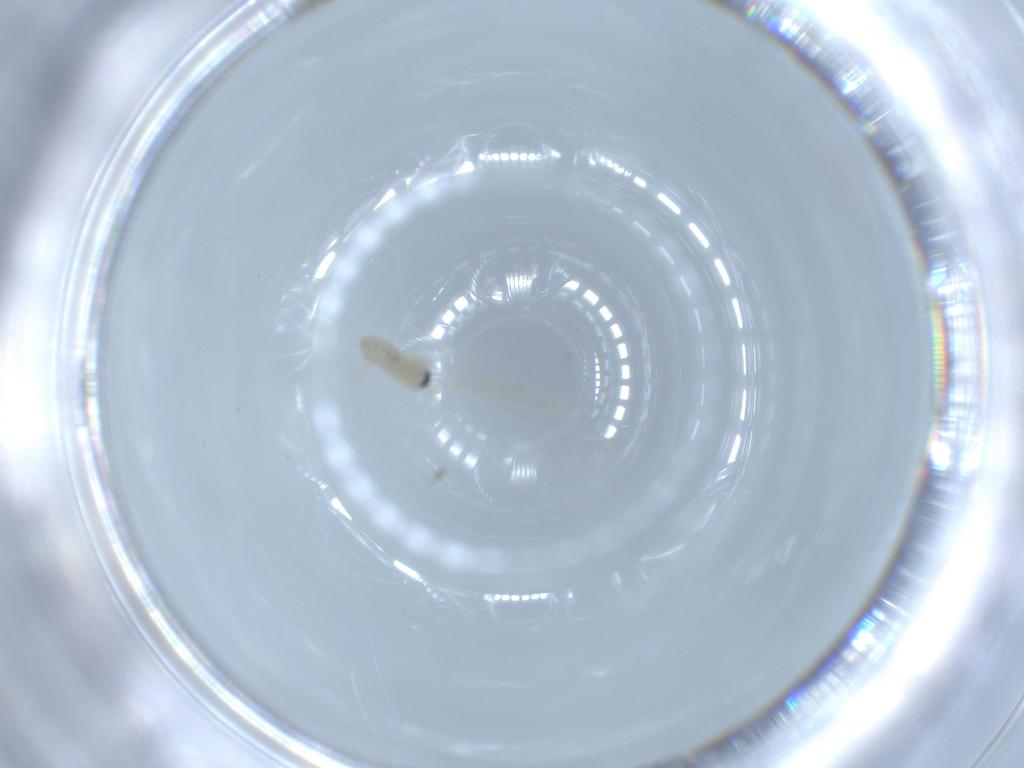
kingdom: Animalia
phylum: Arthropoda
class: Insecta
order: Diptera
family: Cecidomyiidae
